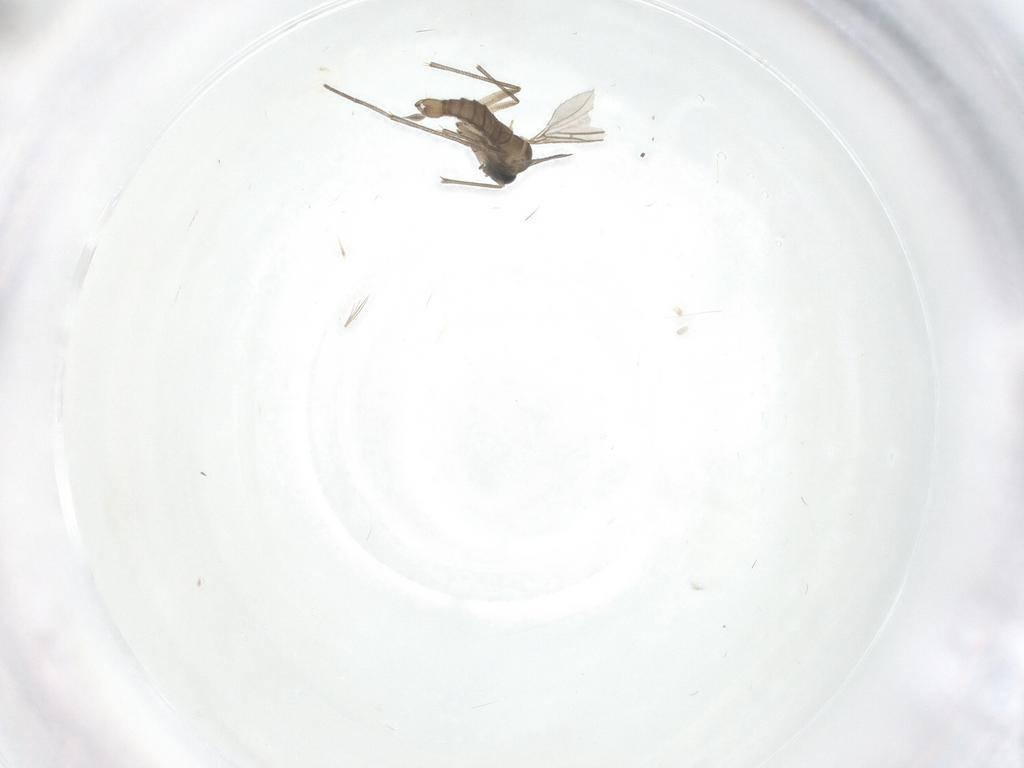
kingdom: Animalia
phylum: Arthropoda
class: Insecta
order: Diptera
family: Sciaridae
